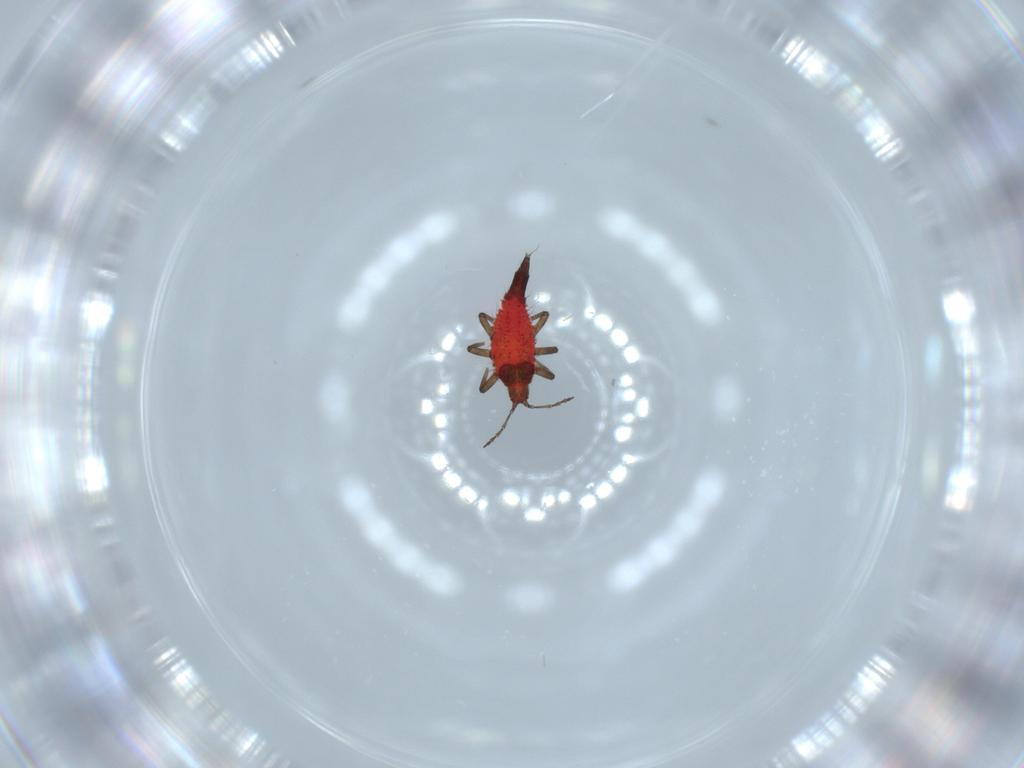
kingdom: Animalia
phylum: Arthropoda
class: Insecta
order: Thysanoptera
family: Phlaeothripidae
